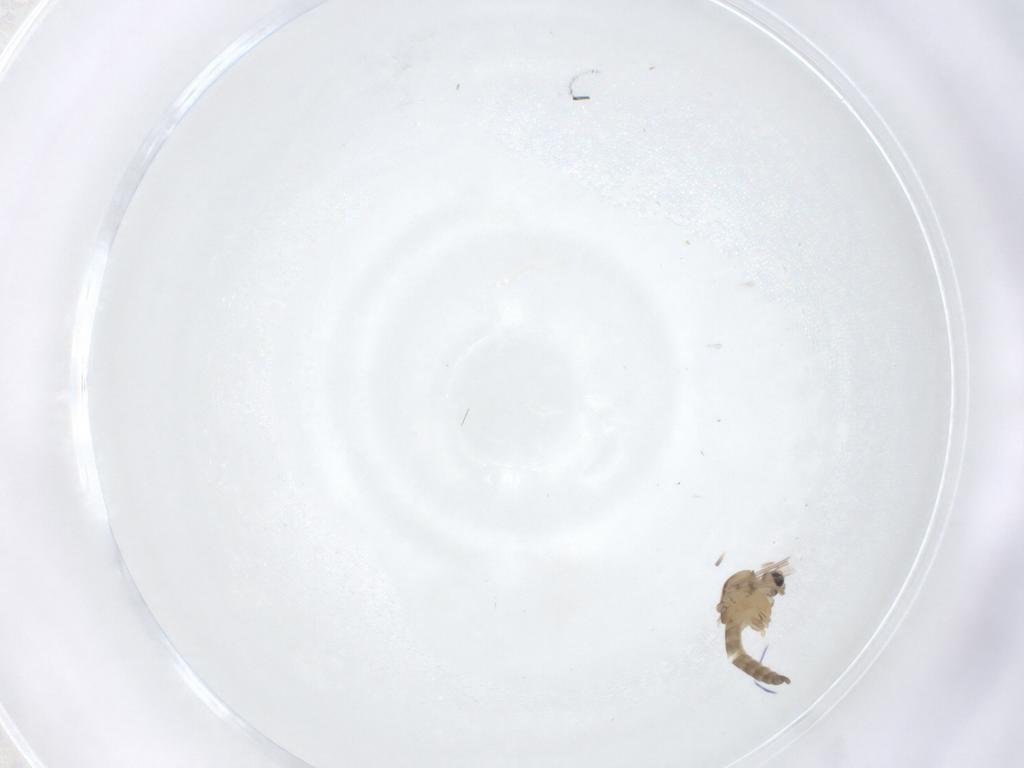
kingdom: Animalia
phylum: Arthropoda
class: Insecta
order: Diptera
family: Chironomidae
